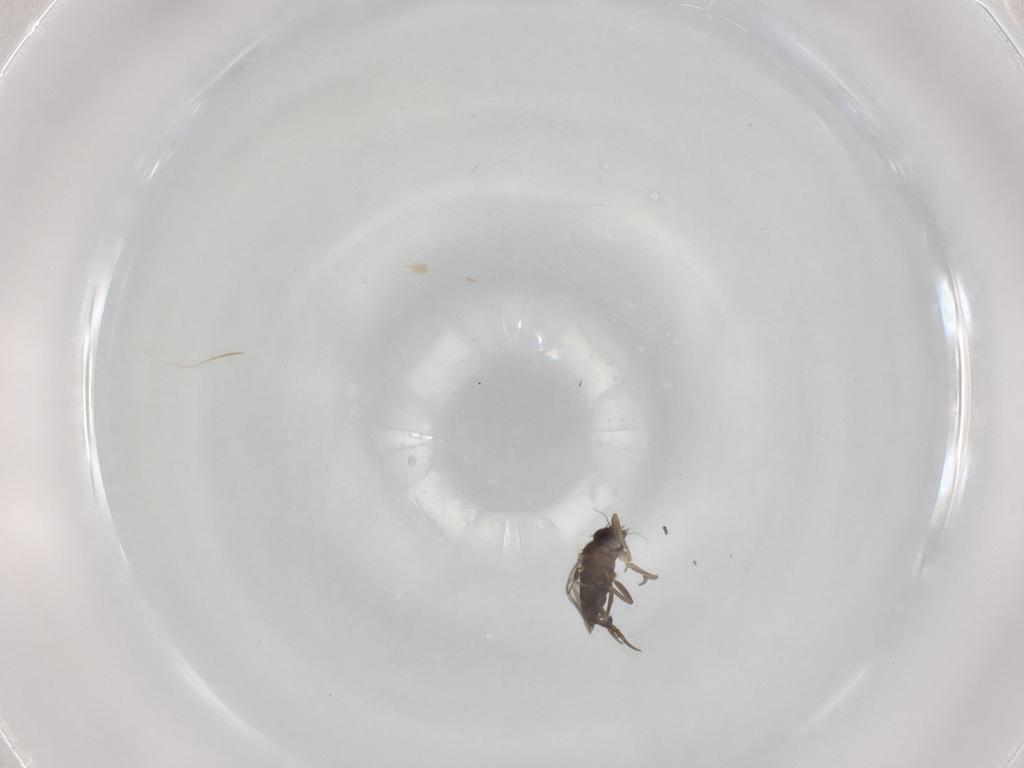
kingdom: Animalia
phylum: Arthropoda
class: Insecta
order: Diptera
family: Phoridae
